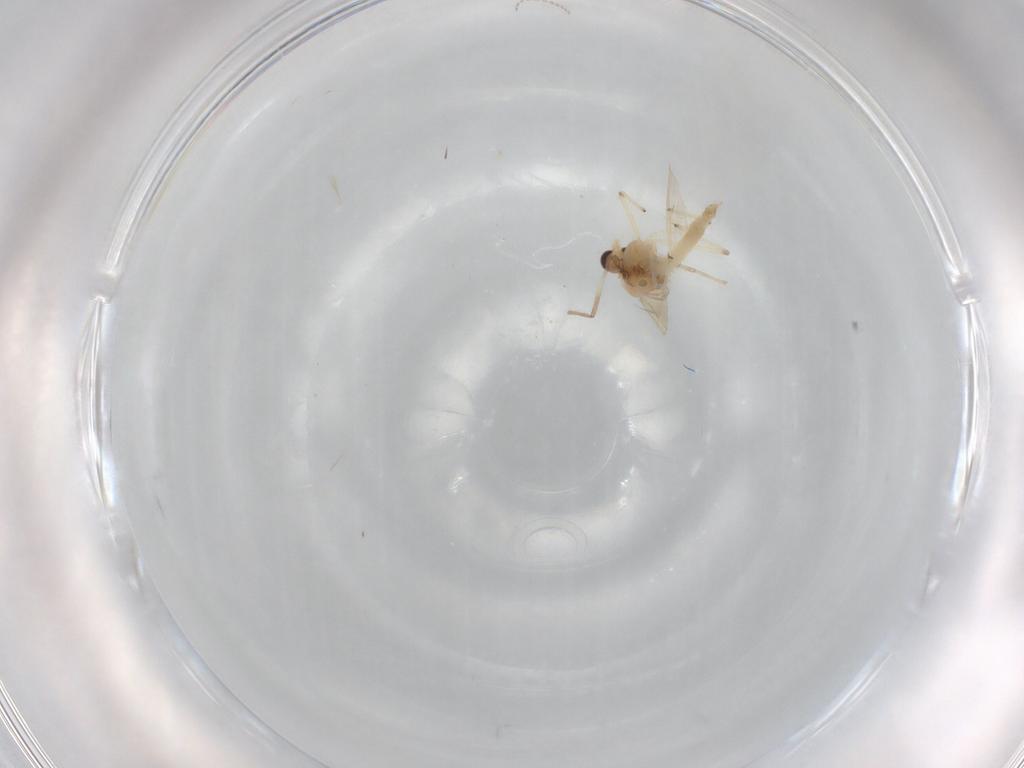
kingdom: Animalia
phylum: Arthropoda
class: Insecta
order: Diptera
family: Chironomidae
